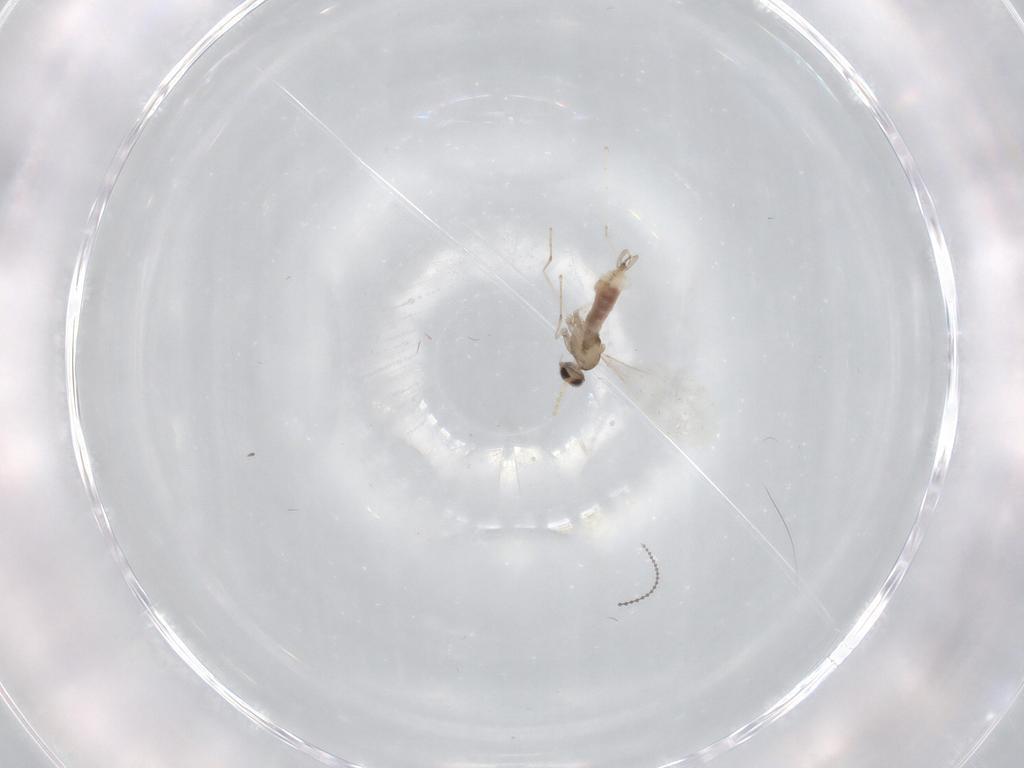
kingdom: Animalia
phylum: Arthropoda
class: Insecta
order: Diptera
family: Cecidomyiidae
